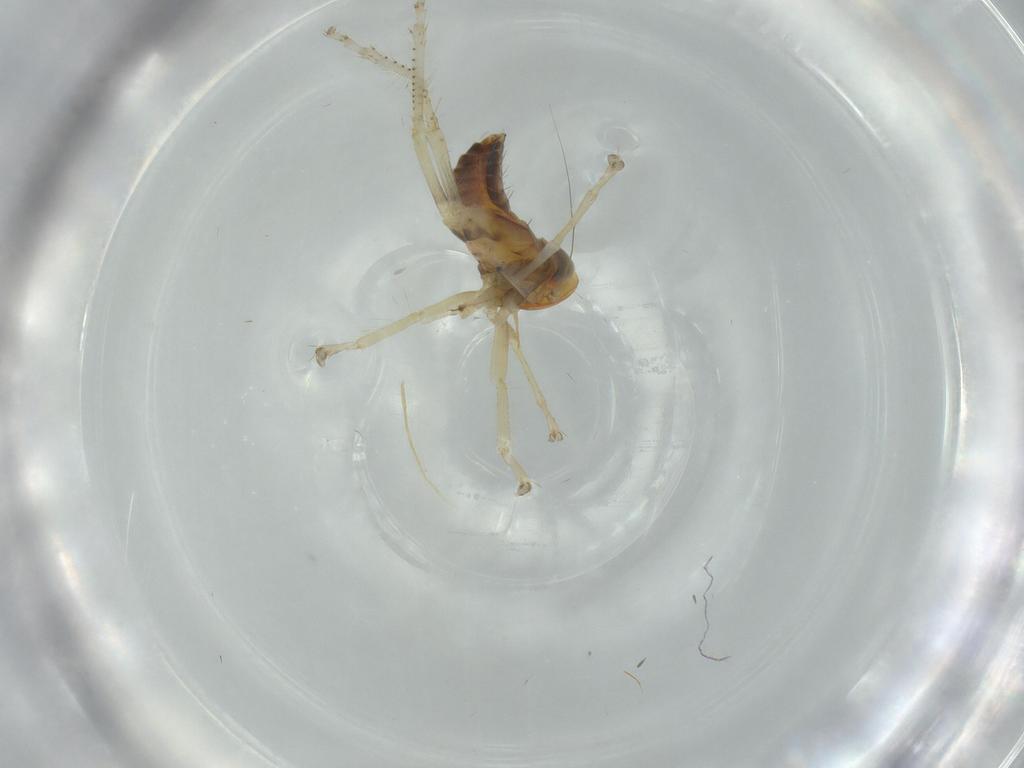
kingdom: Animalia
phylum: Arthropoda
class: Insecta
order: Hemiptera
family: Cicadellidae
